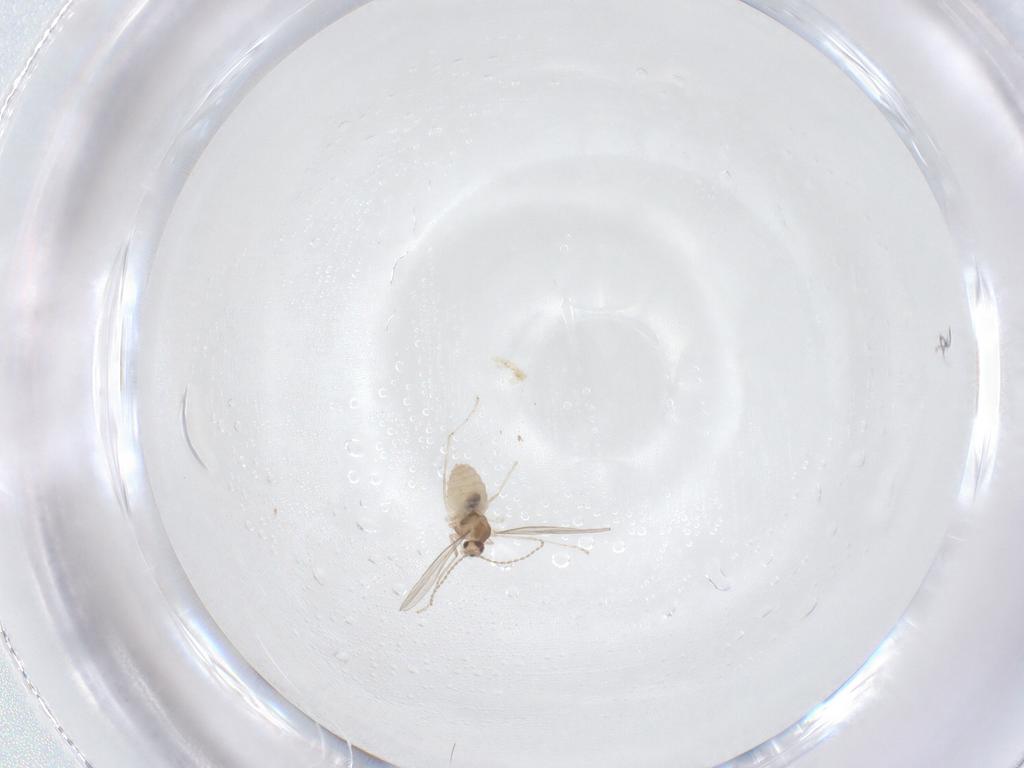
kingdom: Animalia
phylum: Arthropoda
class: Insecta
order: Diptera
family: Cecidomyiidae
